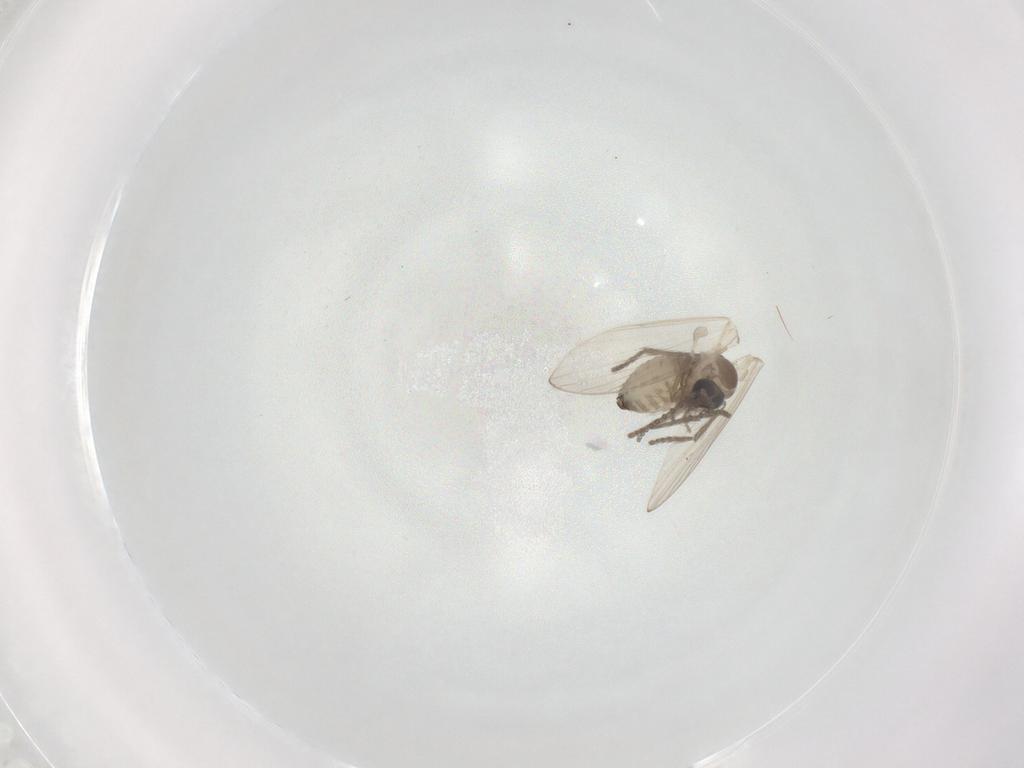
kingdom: Animalia
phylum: Arthropoda
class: Insecta
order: Diptera
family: Psychodidae
